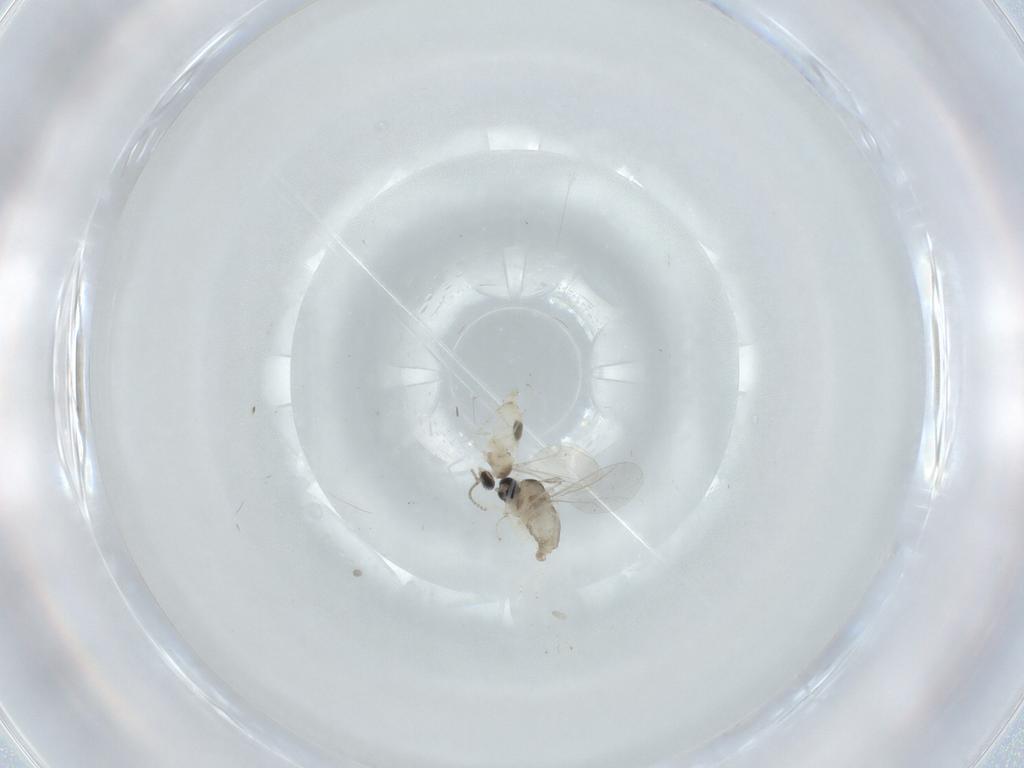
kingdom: Animalia
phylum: Arthropoda
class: Insecta
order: Diptera
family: Cecidomyiidae
